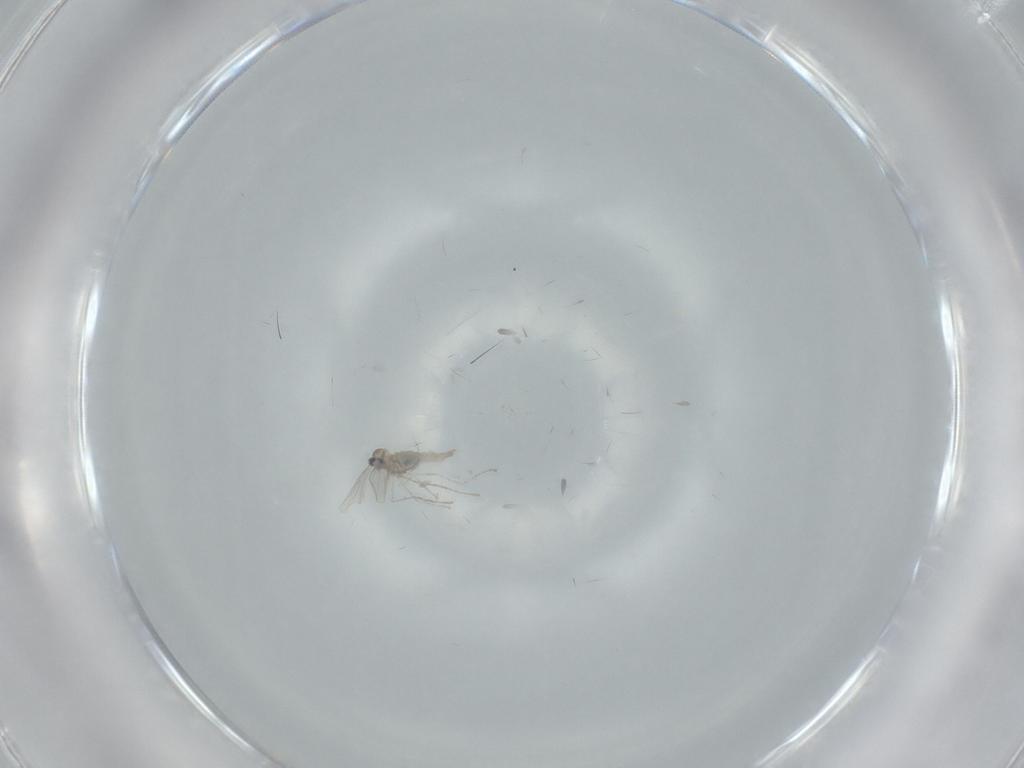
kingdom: Animalia
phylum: Arthropoda
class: Insecta
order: Diptera
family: Cecidomyiidae
